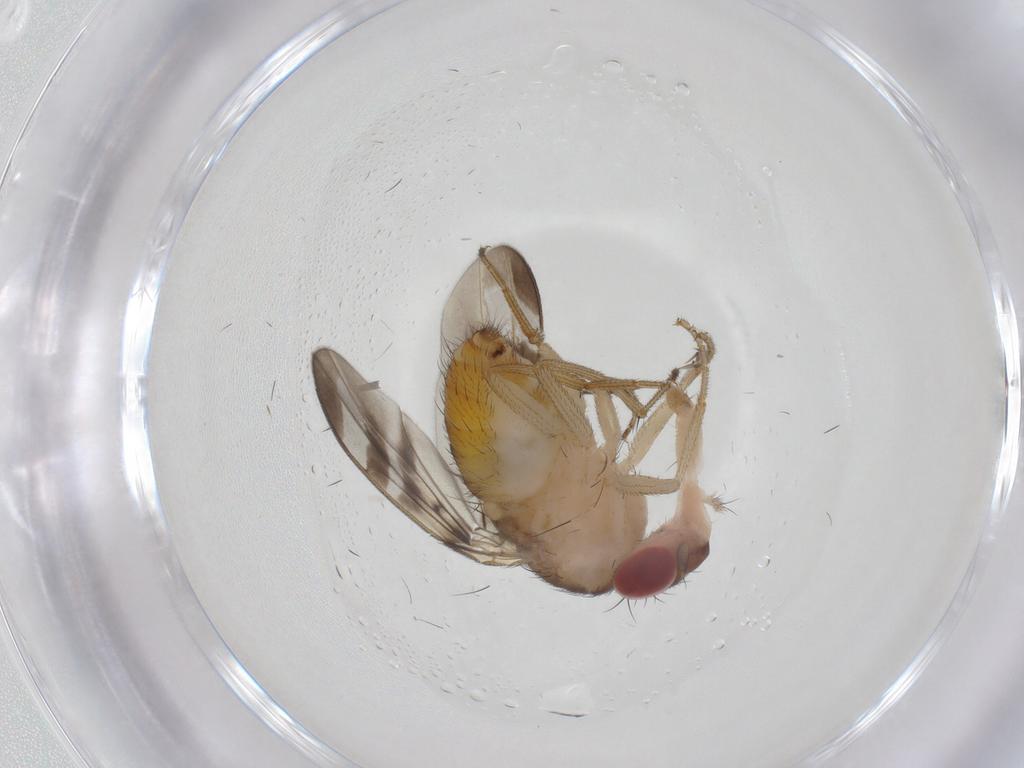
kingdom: Animalia
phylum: Arthropoda
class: Insecta
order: Diptera
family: Drosophilidae
